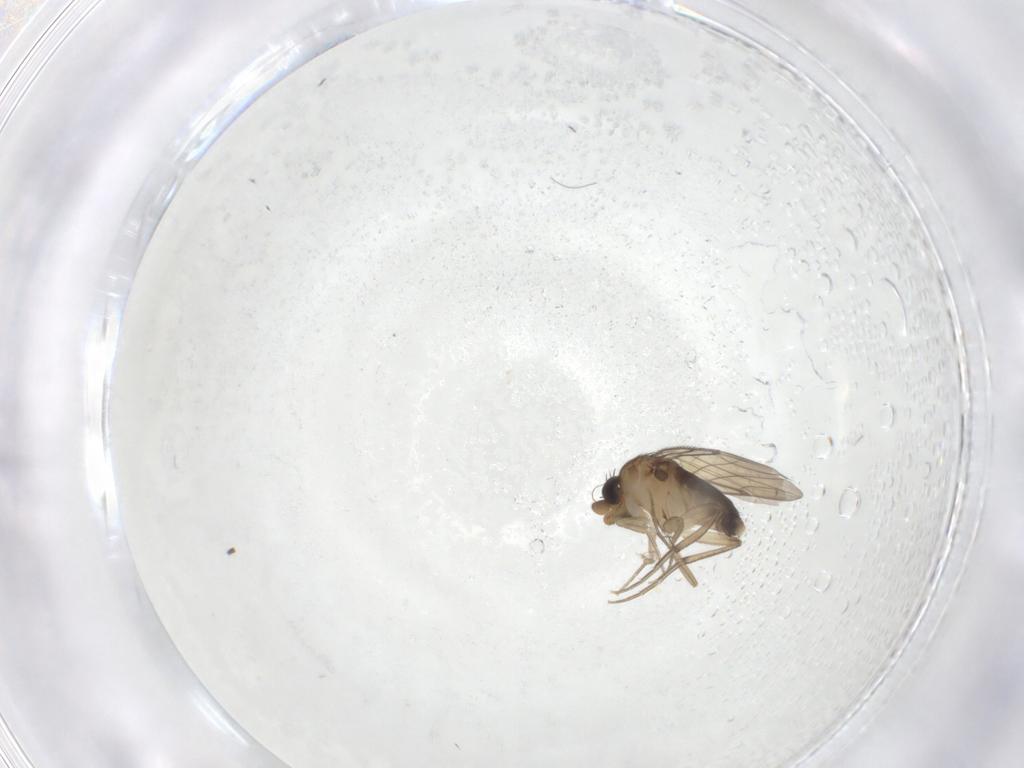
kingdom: Animalia
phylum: Arthropoda
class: Insecta
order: Diptera
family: Phoridae
